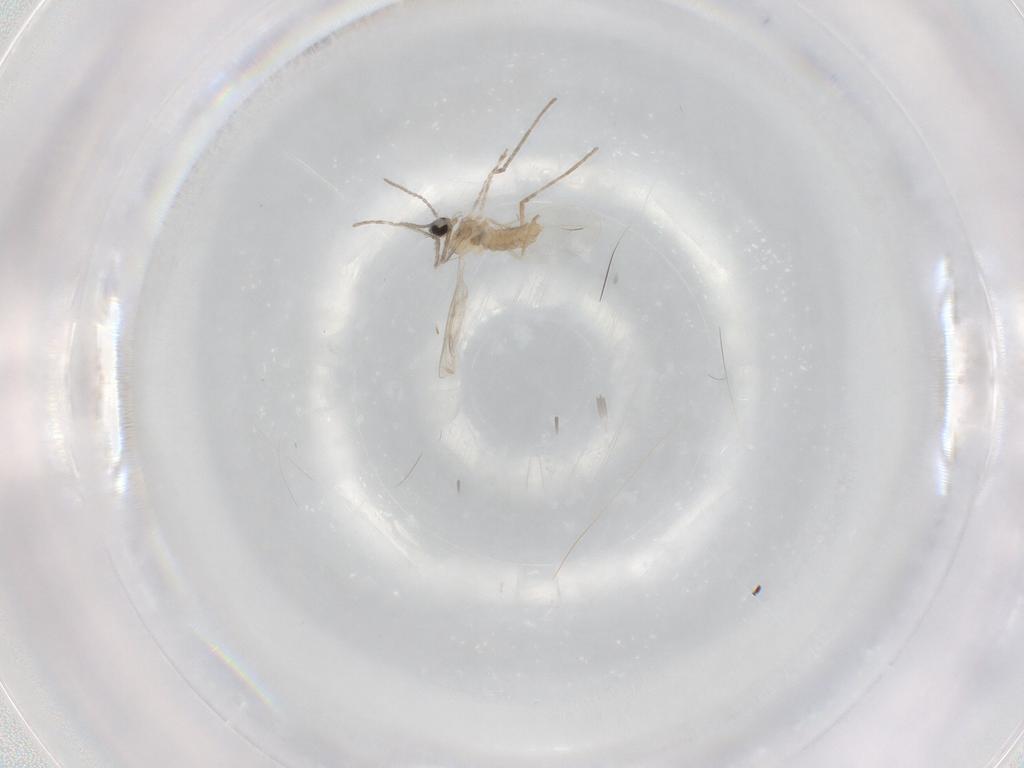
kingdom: Animalia
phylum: Arthropoda
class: Insecta
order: Diptera
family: Cecidomyiidae
